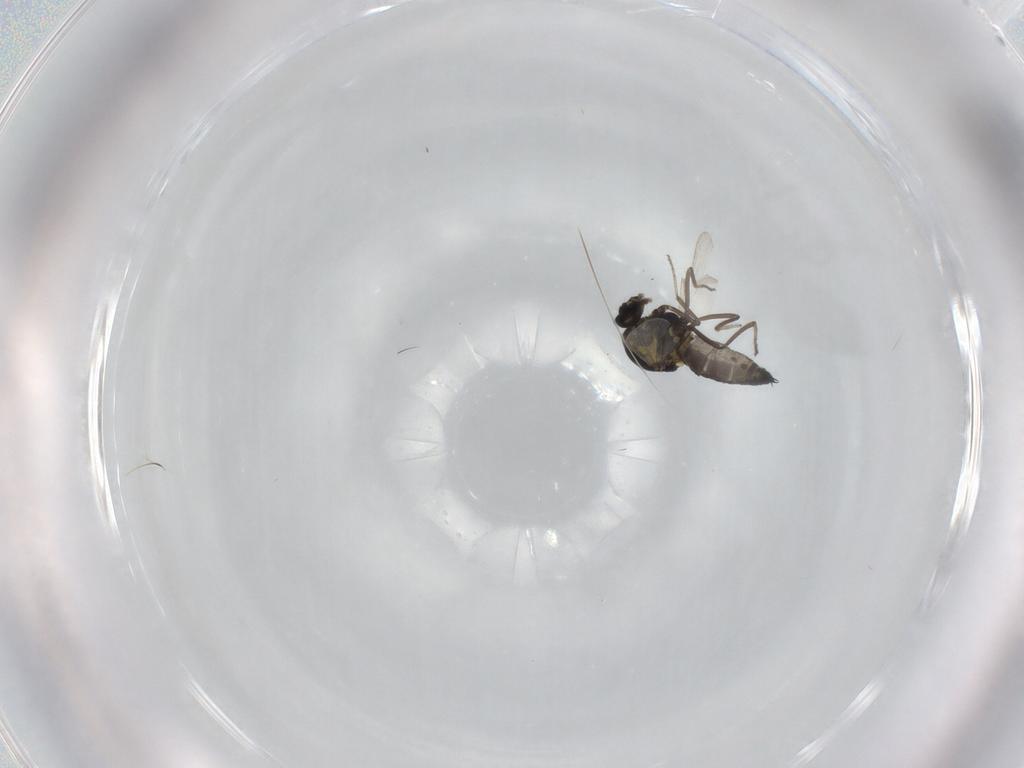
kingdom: Animalia
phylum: Arthropoda
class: Insecta
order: Diptera
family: Ceratopogonidae
